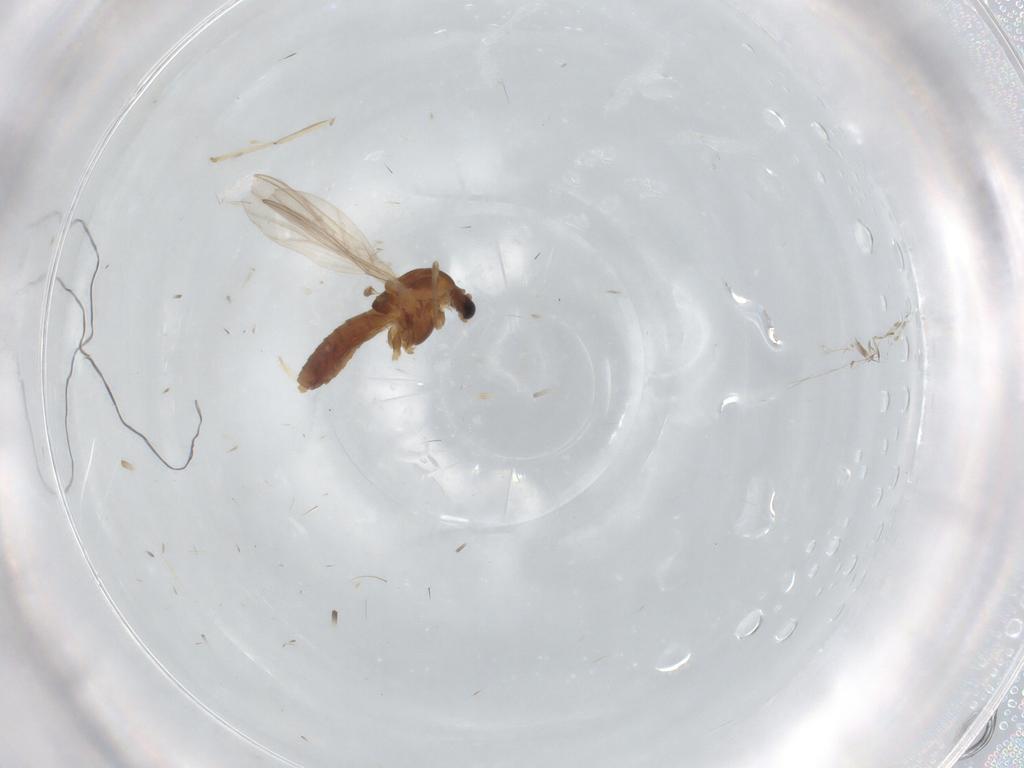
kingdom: Animalia
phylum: Arthropoda
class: Insecta
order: Diptera
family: Cecidomyiidae
